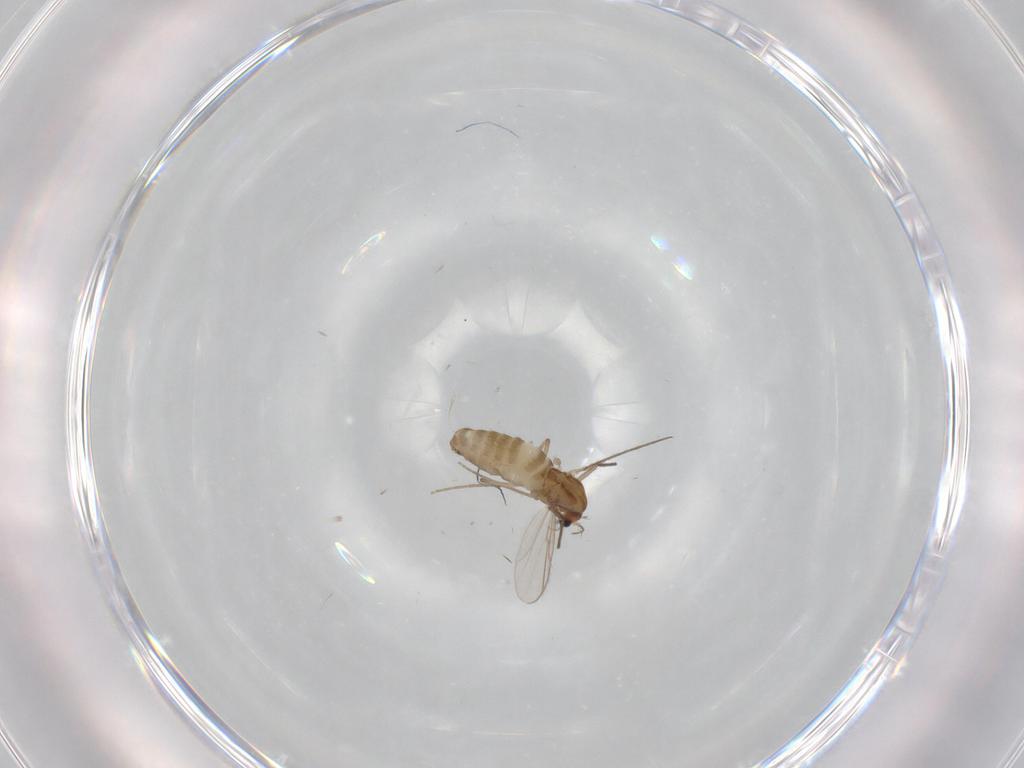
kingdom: Animalia
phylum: Arthropoda
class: Insecta
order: Diptera
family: Chironomidae
